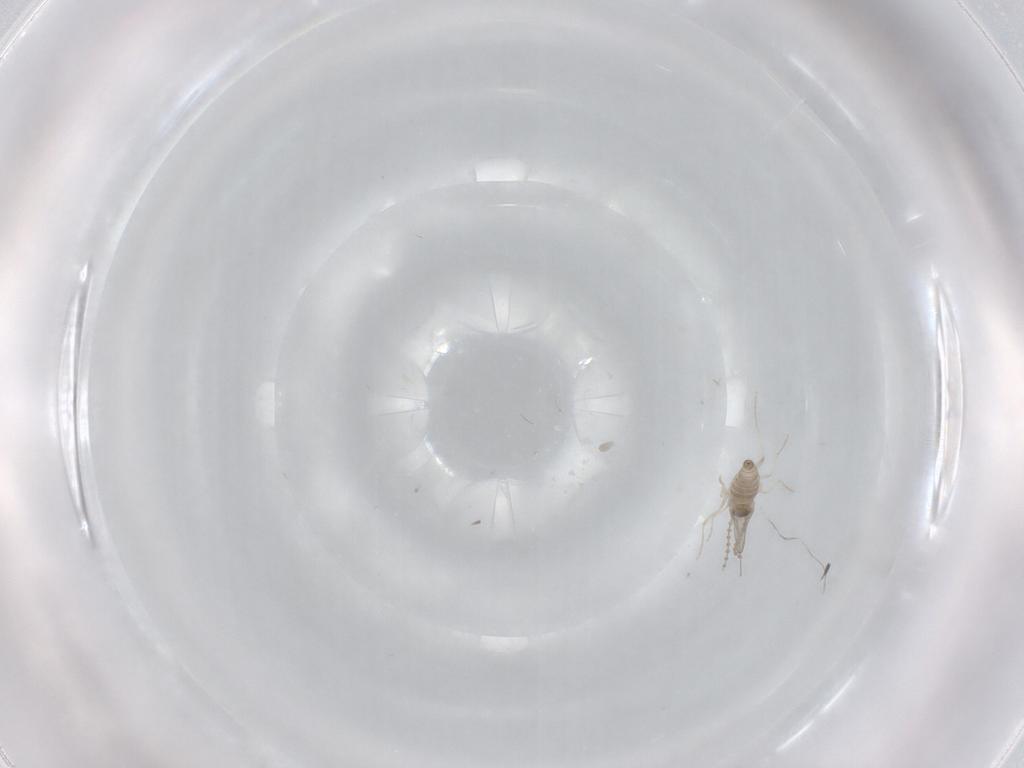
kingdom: Animalia
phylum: Arthropoda
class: Insecta
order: Diptera
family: Cecidomyiidae
